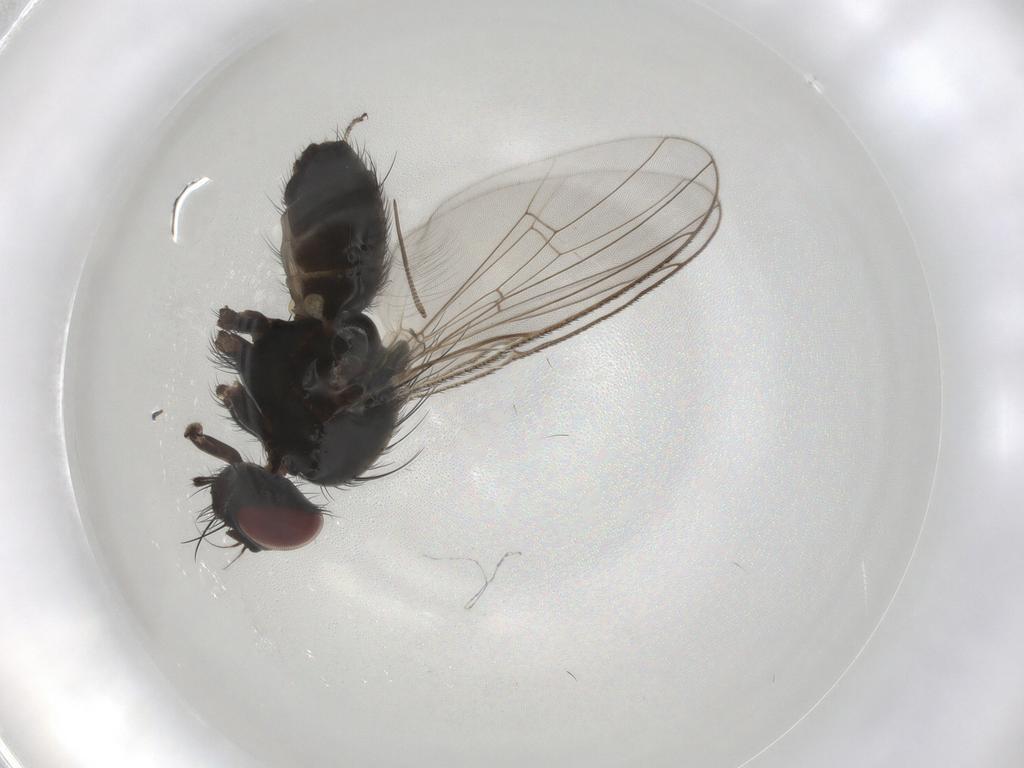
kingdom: Animalia
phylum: Arthropoda
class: Insecta
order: Diptera
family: Muscidae
